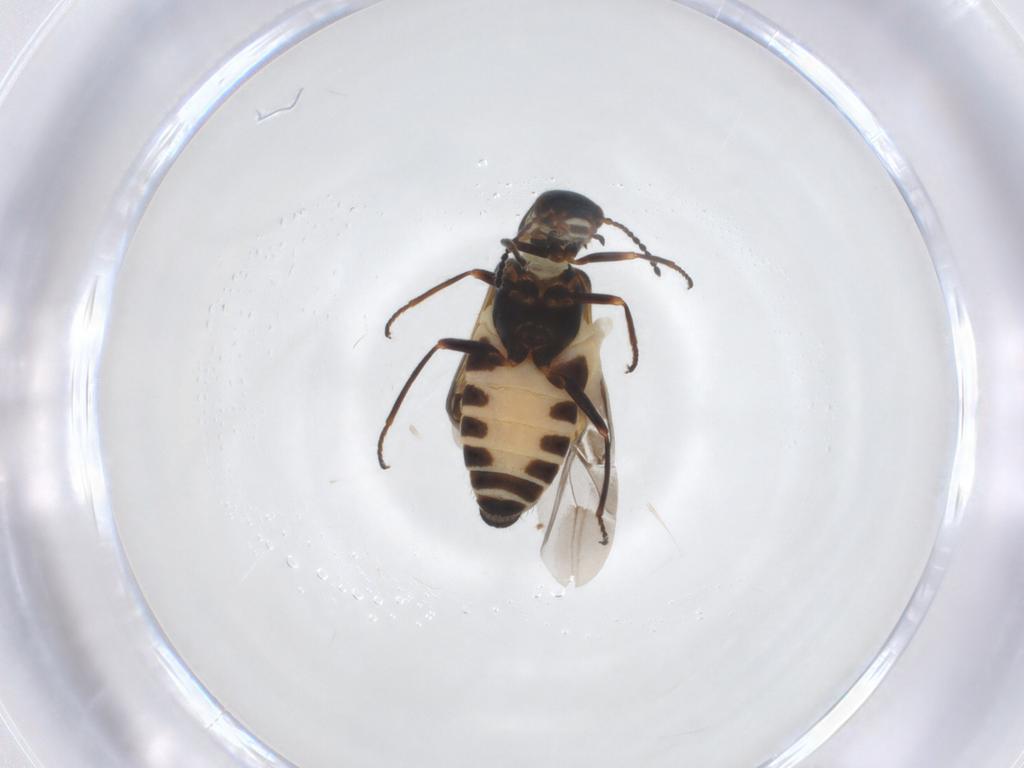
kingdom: Animalia
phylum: Arthropoda
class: Insecta
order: Coleoptera
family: Melyridae
